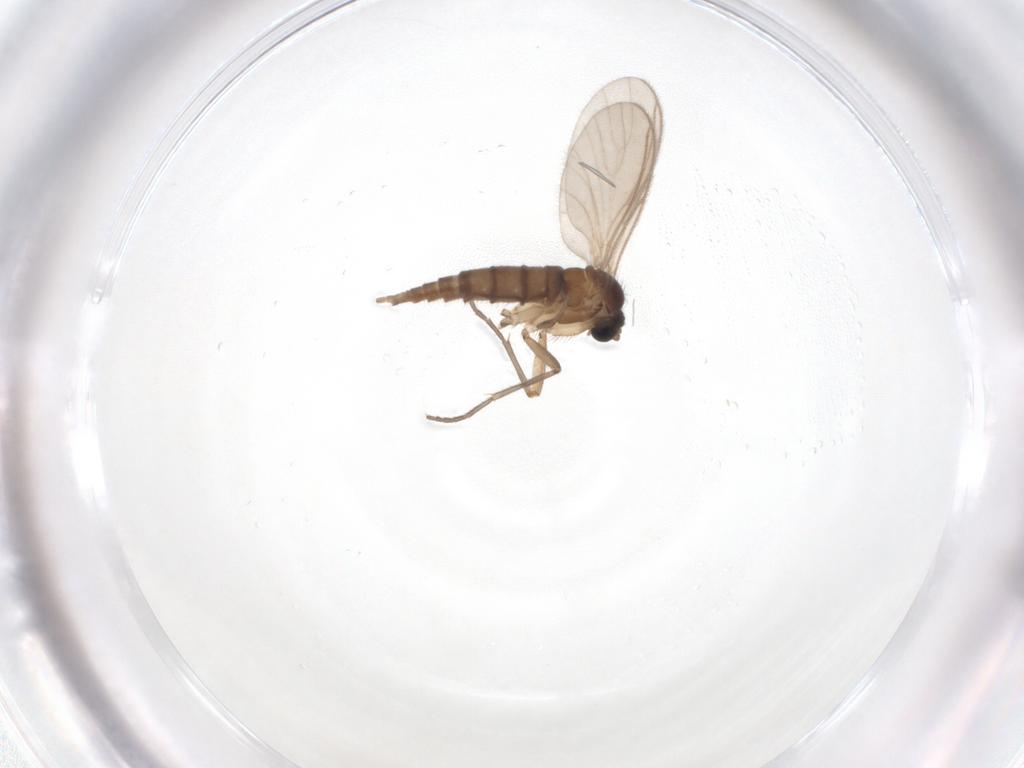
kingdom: Animalia
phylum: Arthropoda
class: Insecta
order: Diptera
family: Sciaridae
